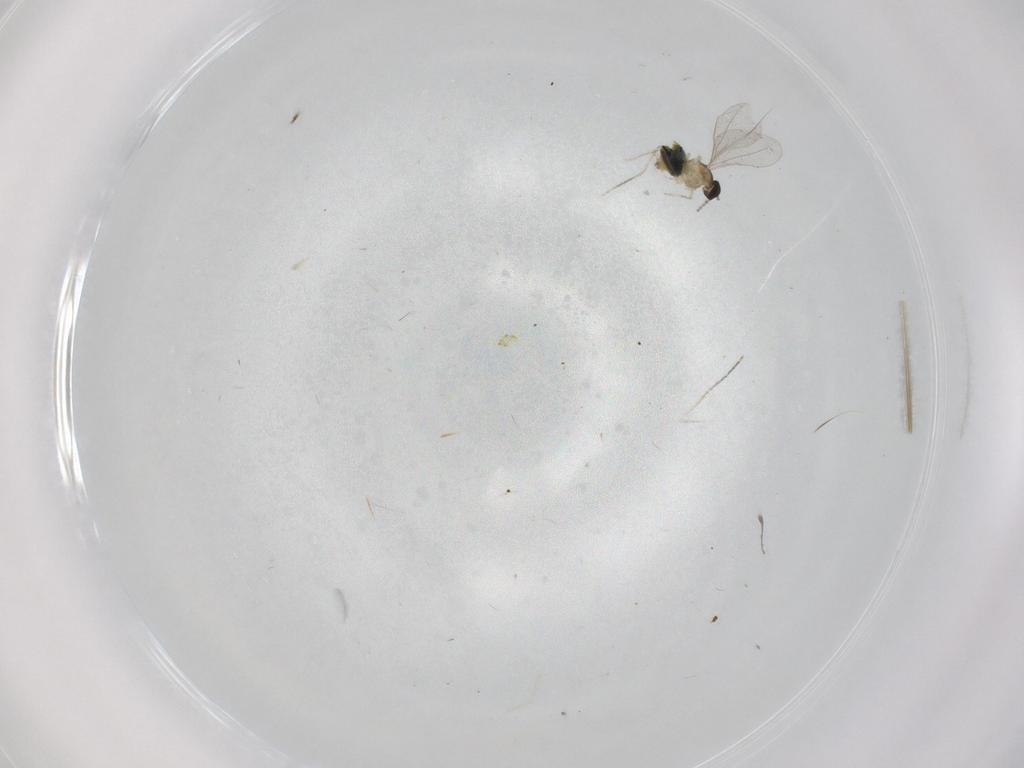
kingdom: Animalia
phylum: Arthropoda
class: Insecta
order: Diptera
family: Cecidomyiidae
